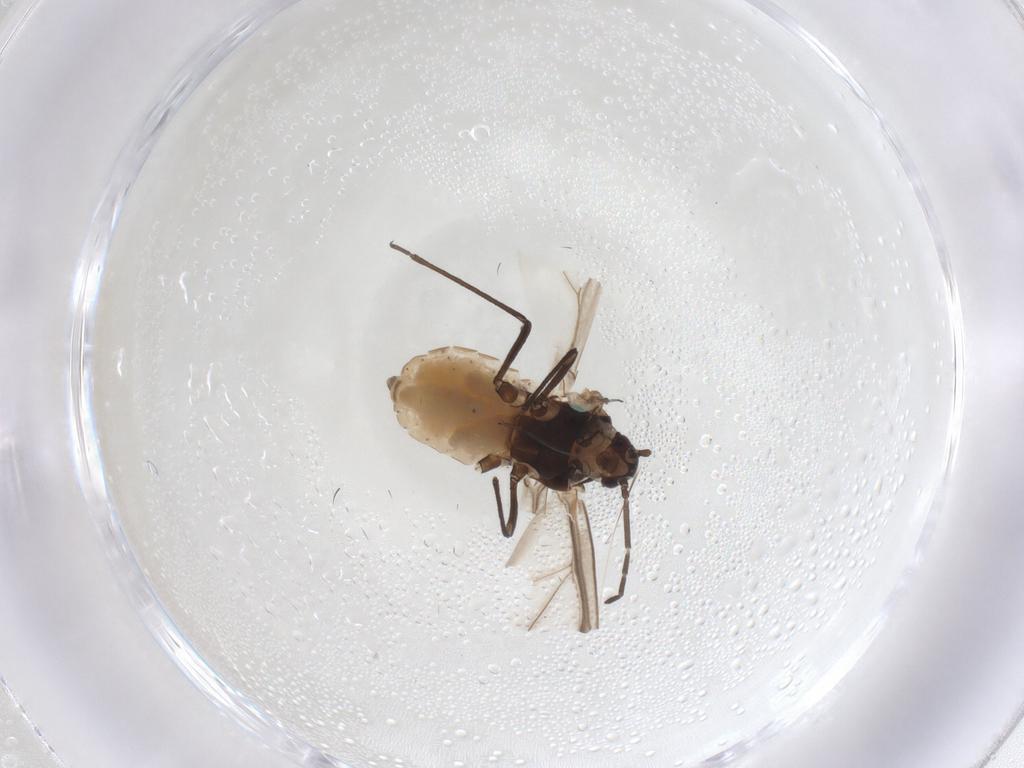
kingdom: Animalia
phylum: Arthropoda
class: Insecta
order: Hemiptera
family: Aphididae
